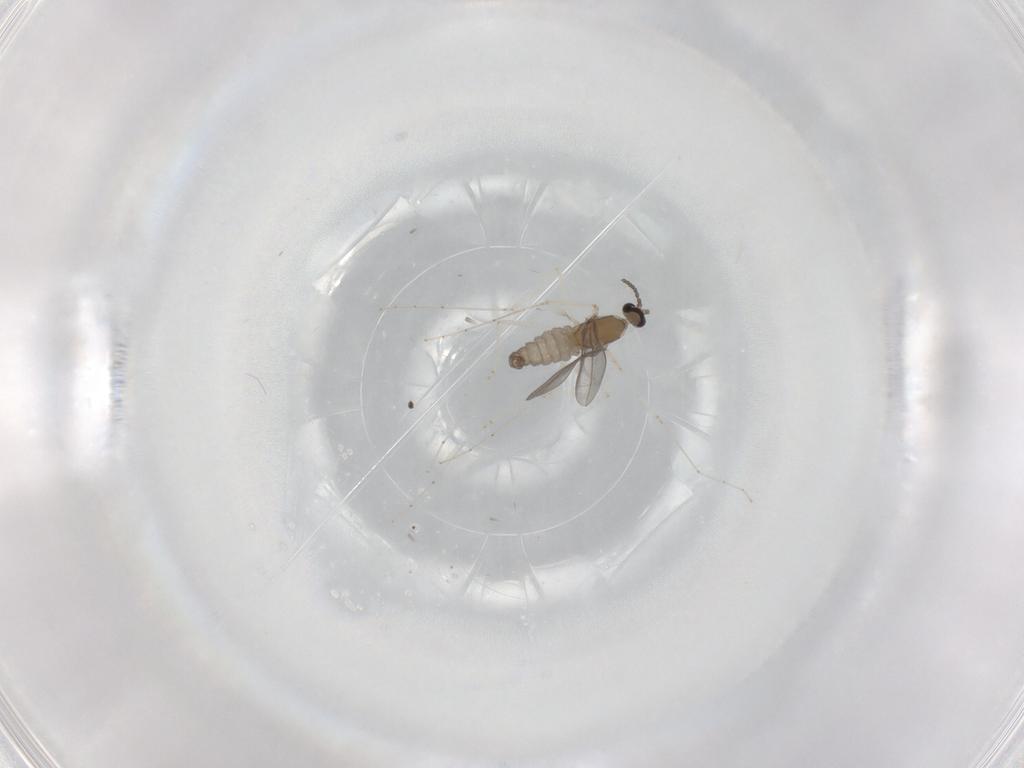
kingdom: Animalia
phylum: Arthropoda
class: Insecta
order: Diptera
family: Cecidomyiidae
